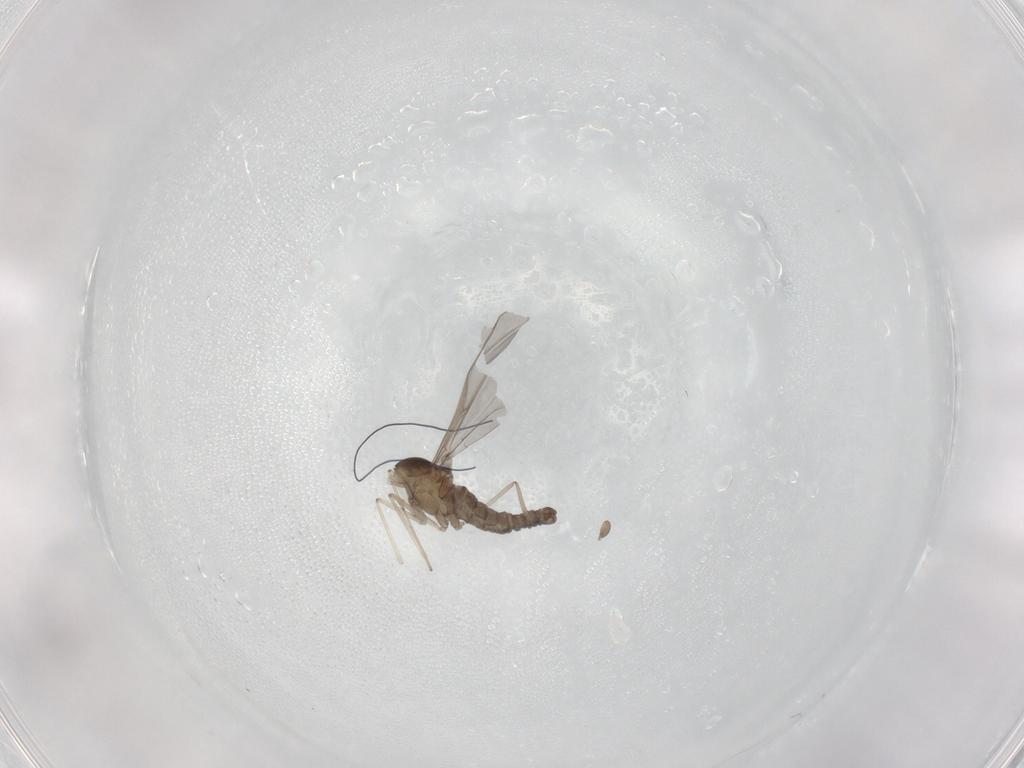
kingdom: Animalia
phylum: Arthropoda
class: Insecta
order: Diptera
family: Cecidomyiidae
